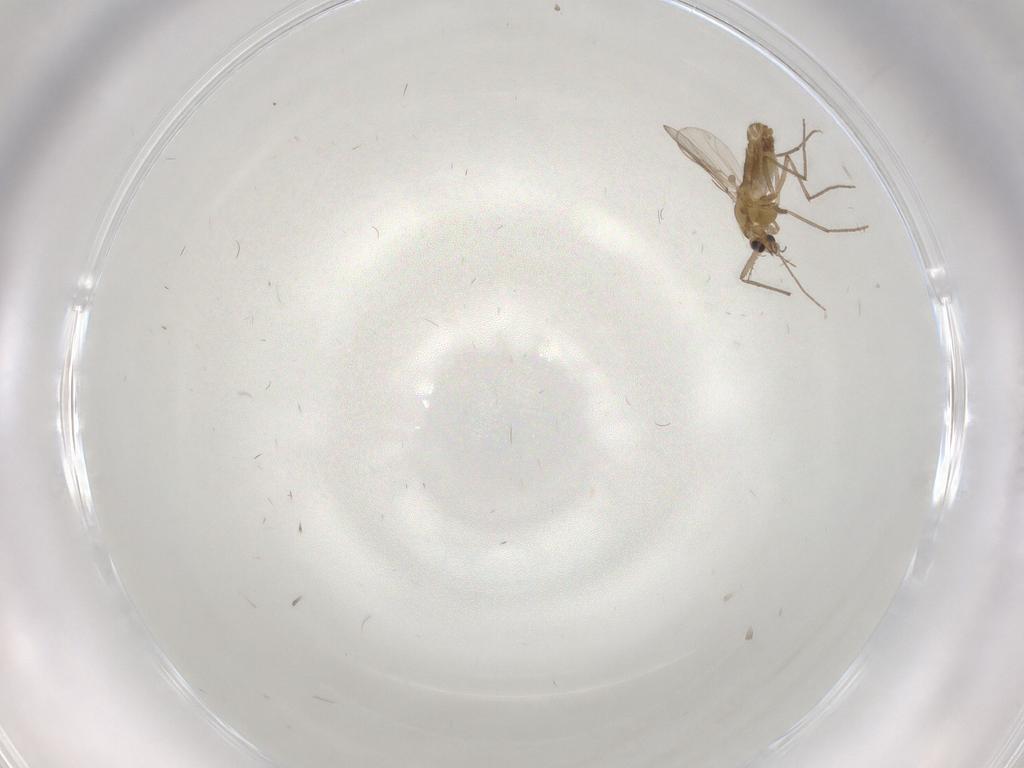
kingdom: Animalia
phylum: Arthropoda
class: Insecta
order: Diptera
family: Chironomidae
